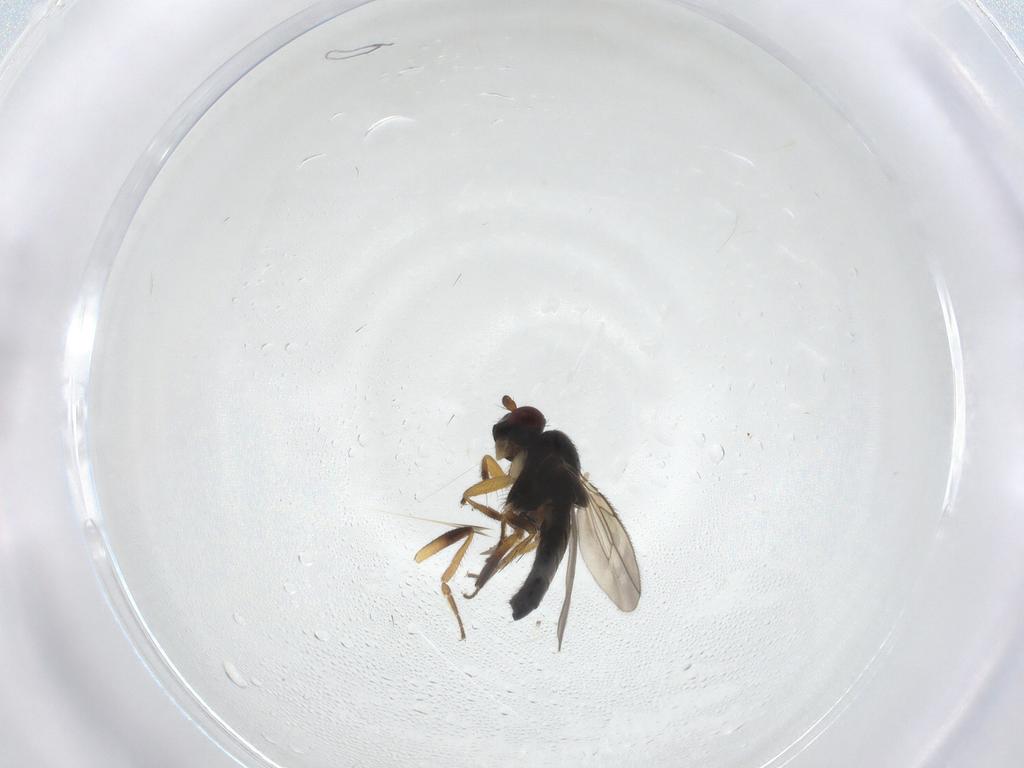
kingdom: Animalia
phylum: Arthropoda
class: Insecta
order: Diptera
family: Sphaeroceridae
